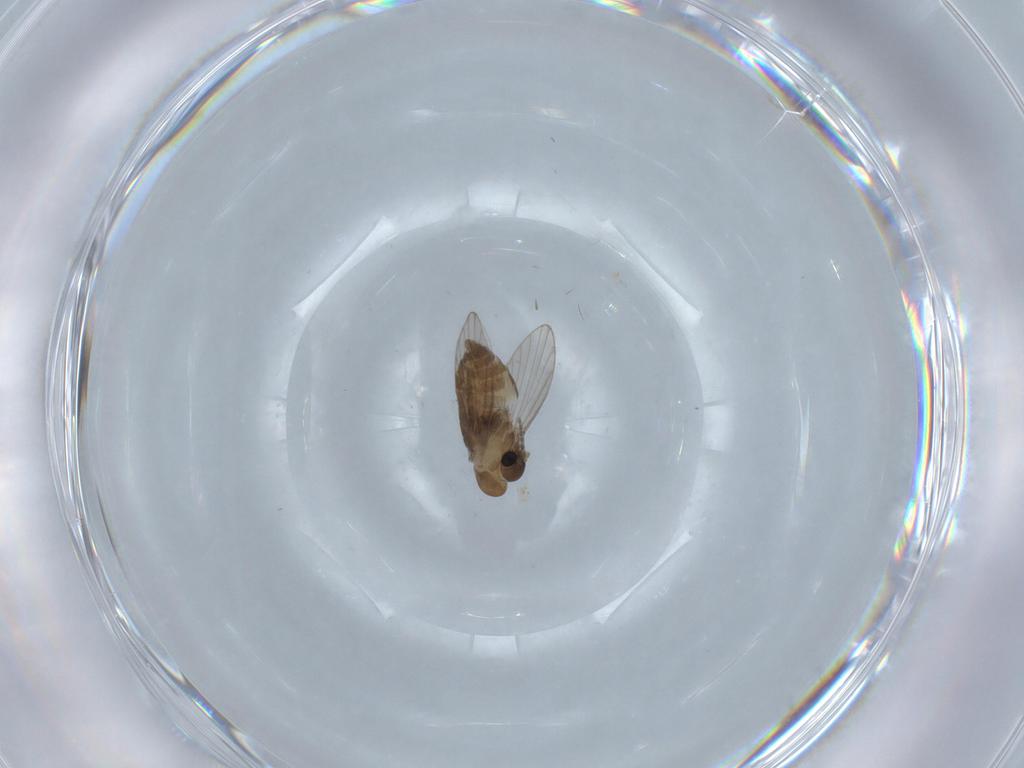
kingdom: Animalia
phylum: Arthropoda
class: Insecta
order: Diptera
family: Psychodidae
